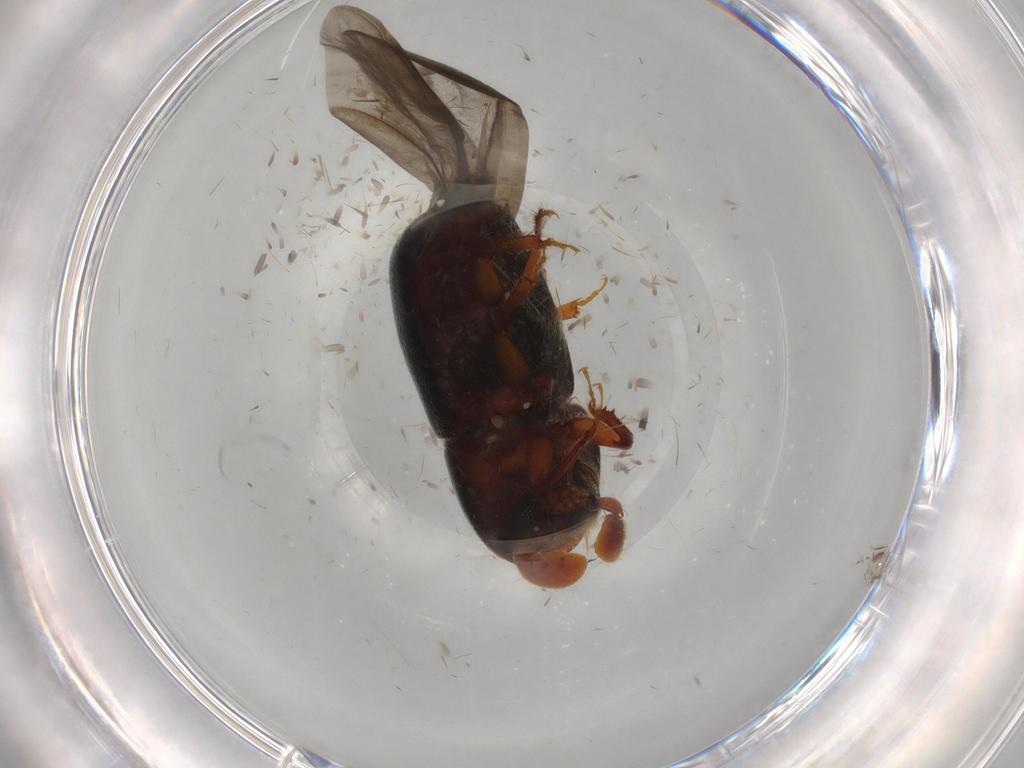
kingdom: Animalia
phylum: Arthropoda
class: Insecta
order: Coleoptera
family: Curculionidae
